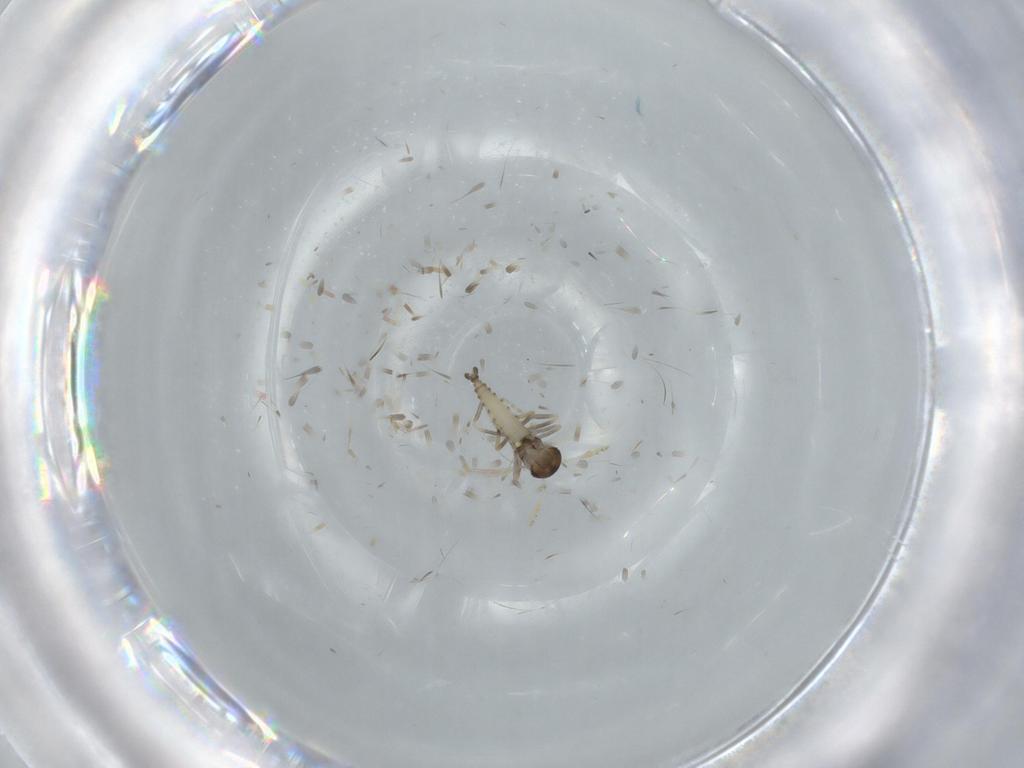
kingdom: Animalia
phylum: Arthropoda
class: Insecta
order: Diptera
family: Ceratopogonidae
